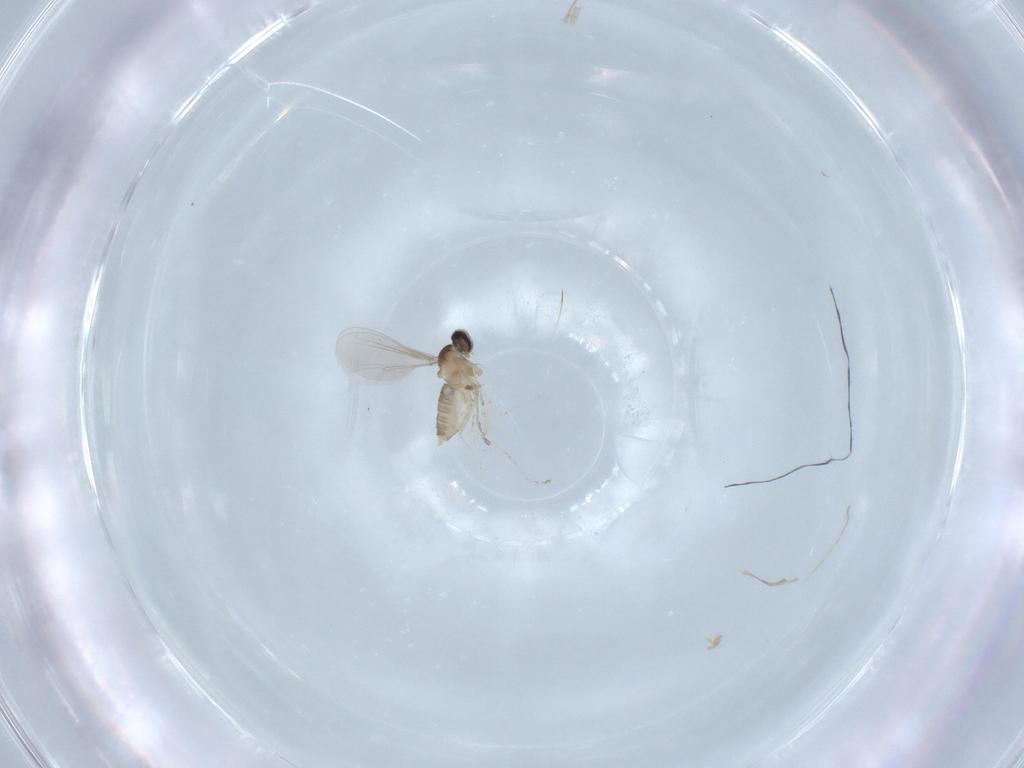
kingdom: Animalia
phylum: Arthropoda
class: Insecta
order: Diptera
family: Cecidomyiidae
